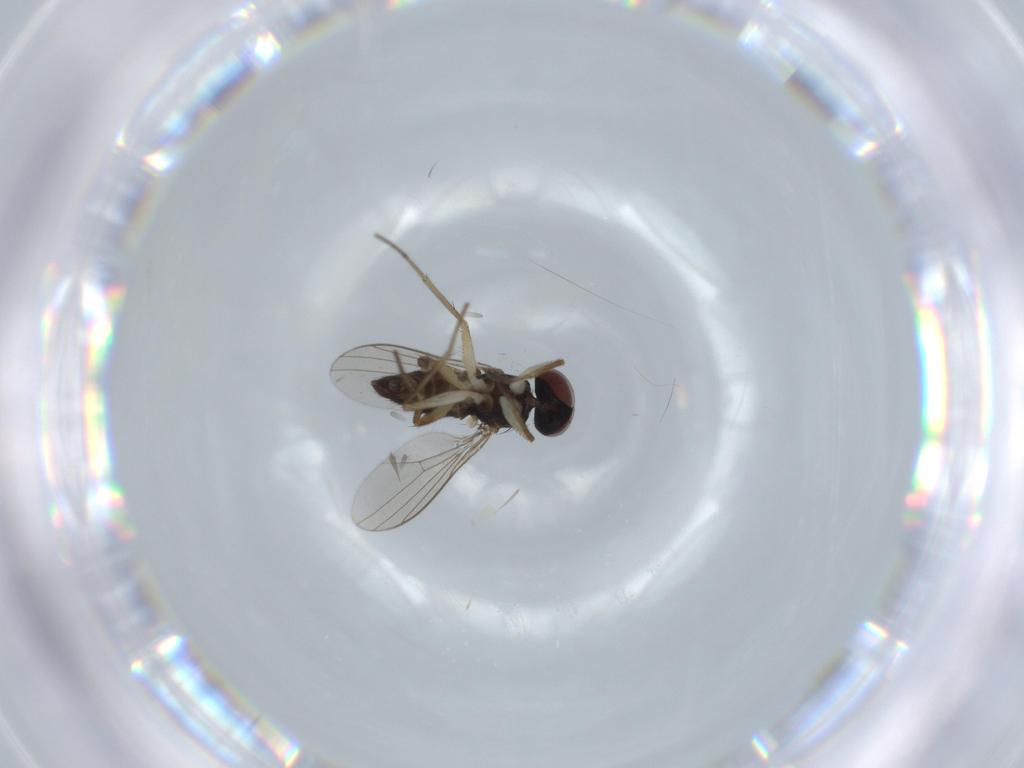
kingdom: Animalia
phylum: Arthropoda
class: Insecta
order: Diptera
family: Dolichopodidae
